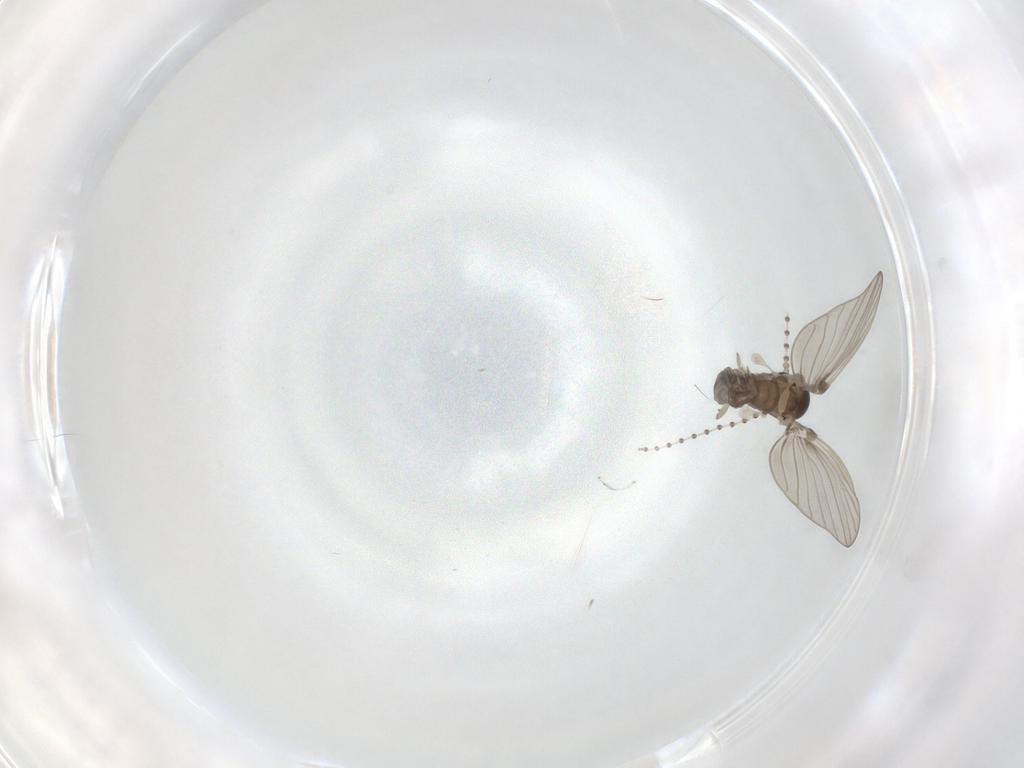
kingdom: Animalia
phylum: Arthropoda
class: Insecta
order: Diptera
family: Psychodidae
